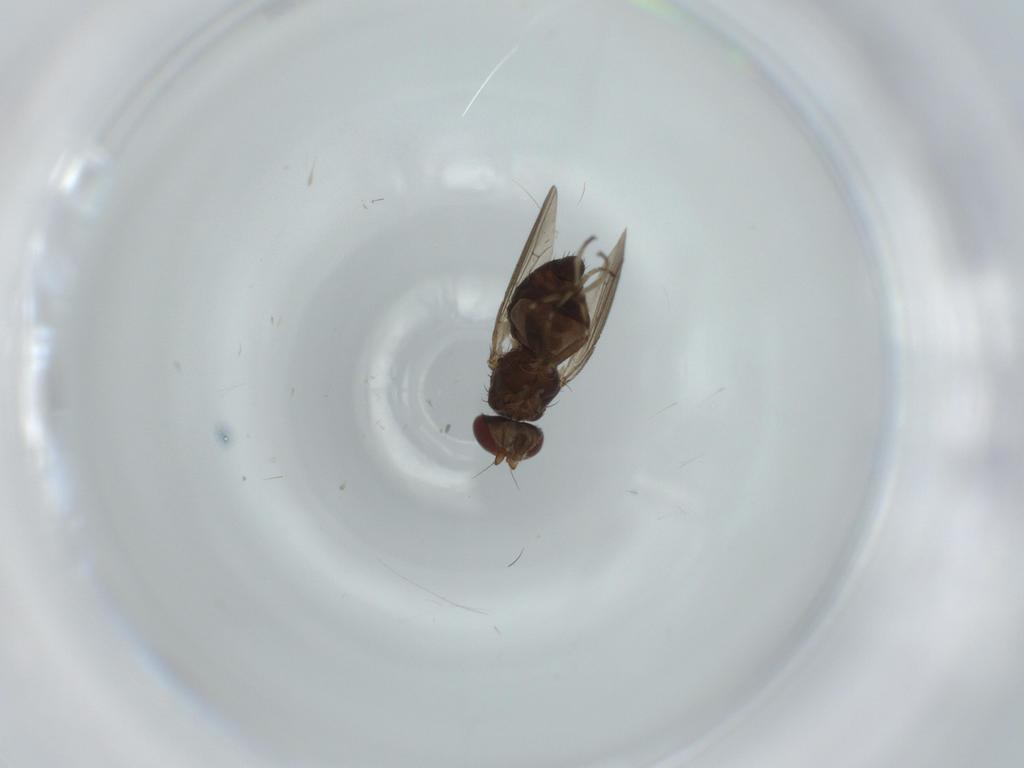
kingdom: Animalia
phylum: Arthropoda
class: Insecta
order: Diptera
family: Heleomyzidae
